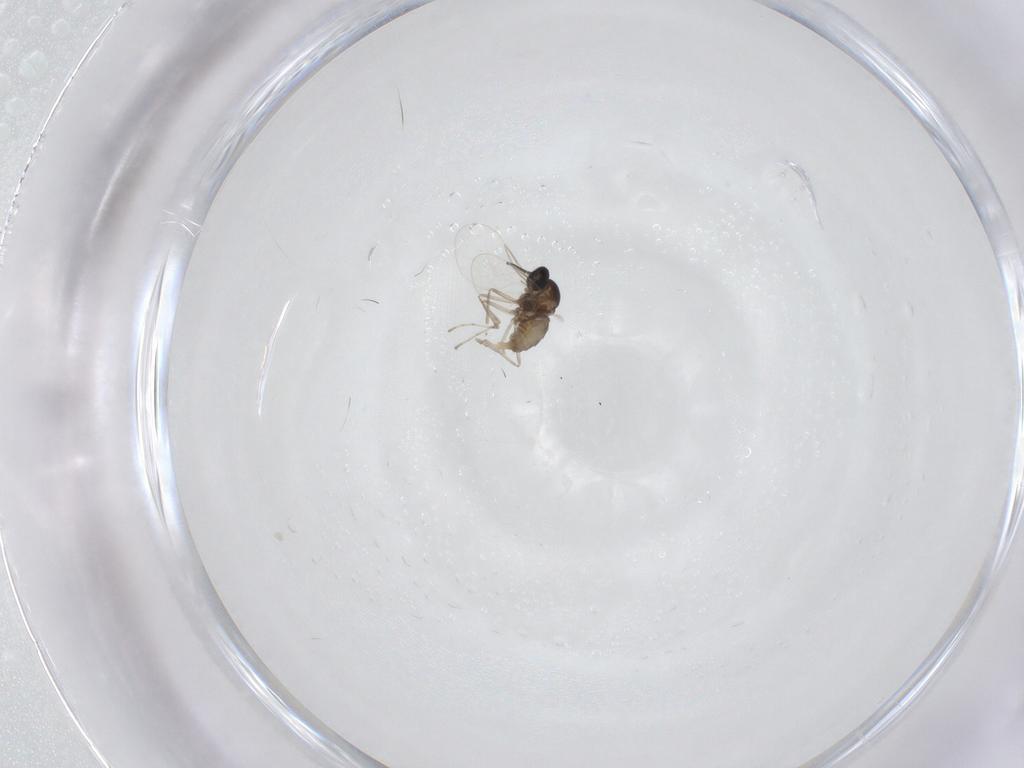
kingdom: Animalia
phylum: Arthropoda
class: Insecta
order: Diptera
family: Cecidomyiidae
